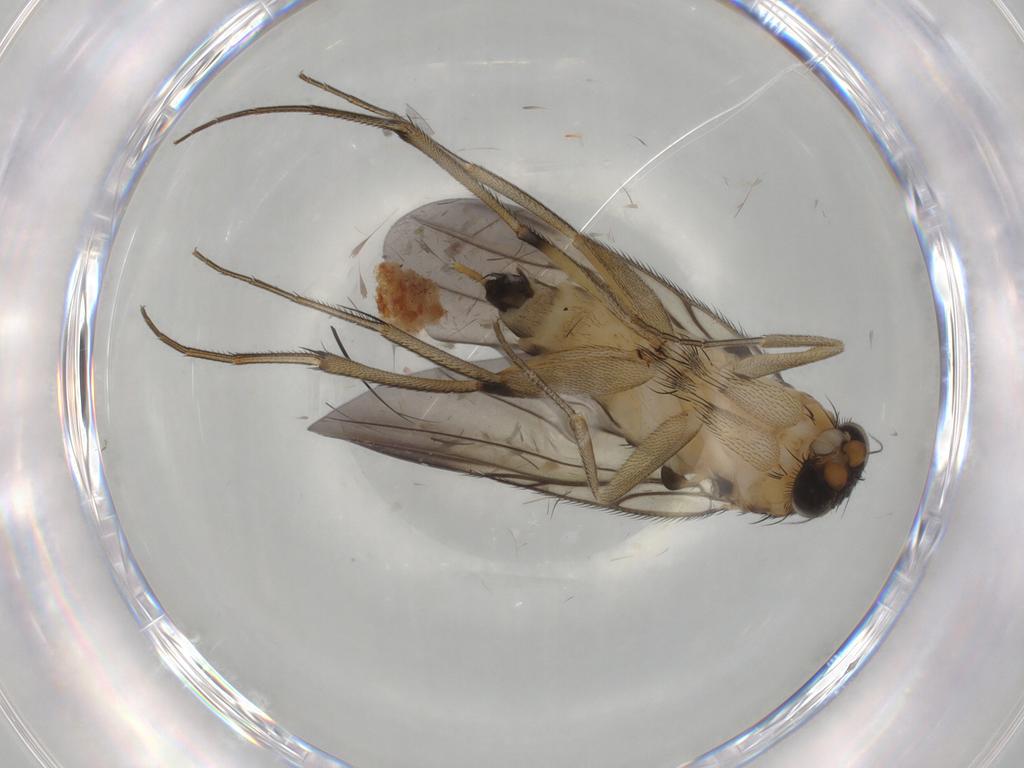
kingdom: Animalia
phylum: Arthropoda
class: Insecta
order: Diptera
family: Phoridae
